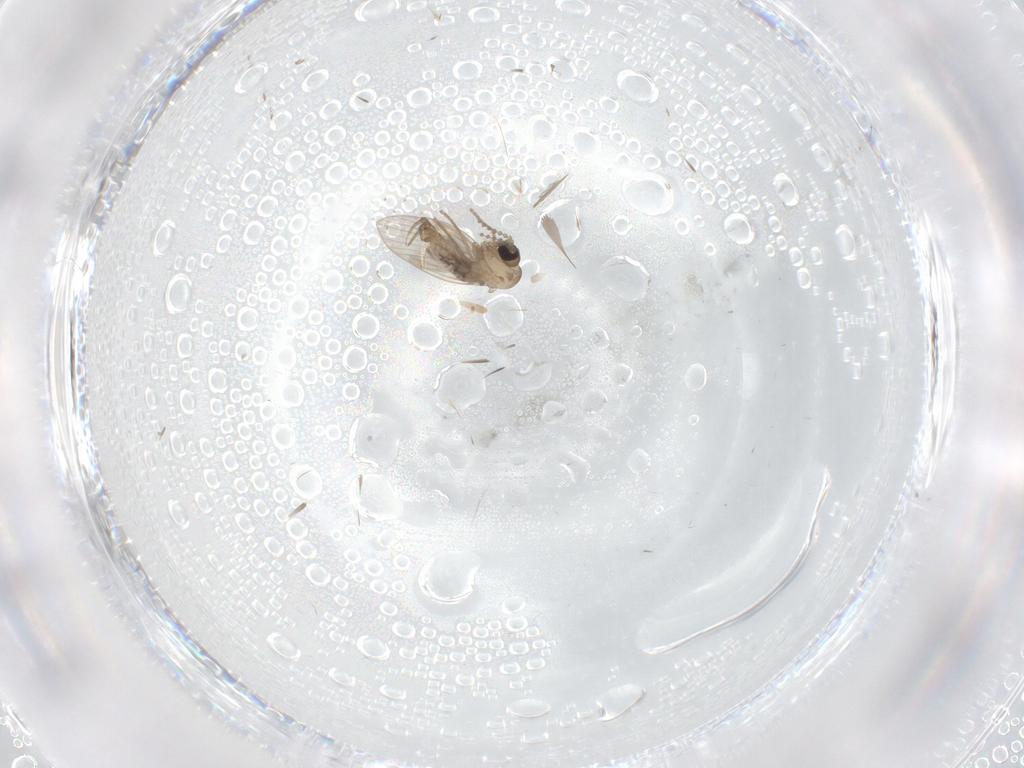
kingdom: Animalia
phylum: Arthropoda
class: Insecta
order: Diptera
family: Psychodidae
